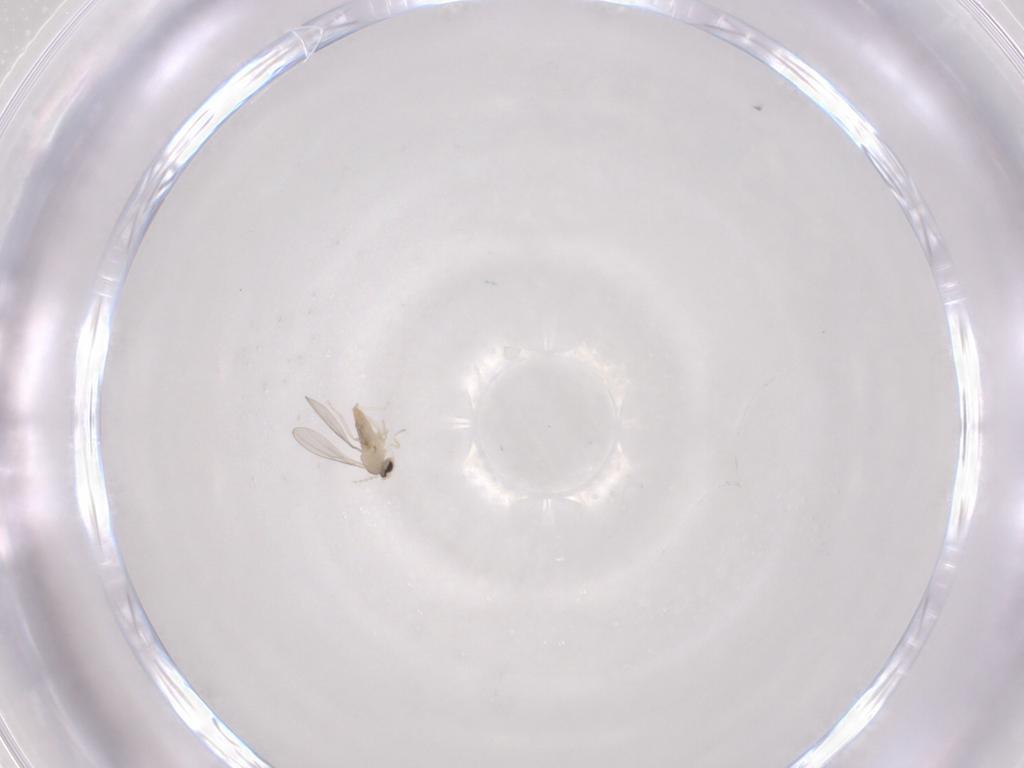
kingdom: Animalia
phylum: Arthropoda
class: Insecta
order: Diptera
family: Cecidomyiidae
